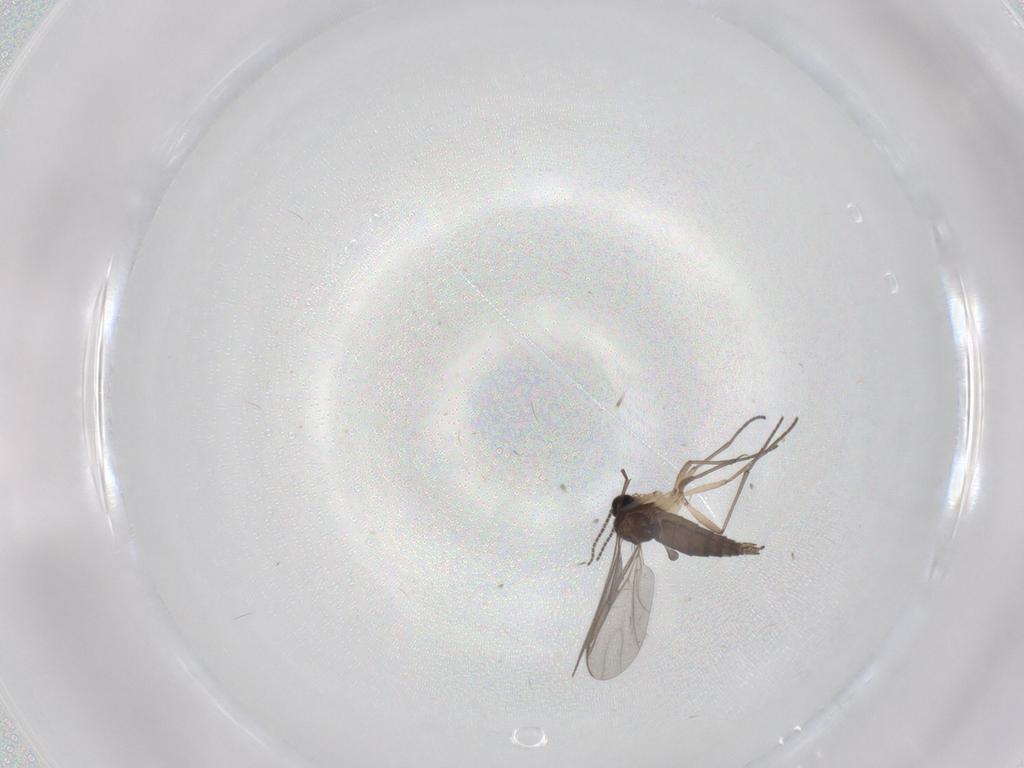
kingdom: Animalia
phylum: Arthropoda
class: Insecta
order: Diptera
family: Sciaridae
